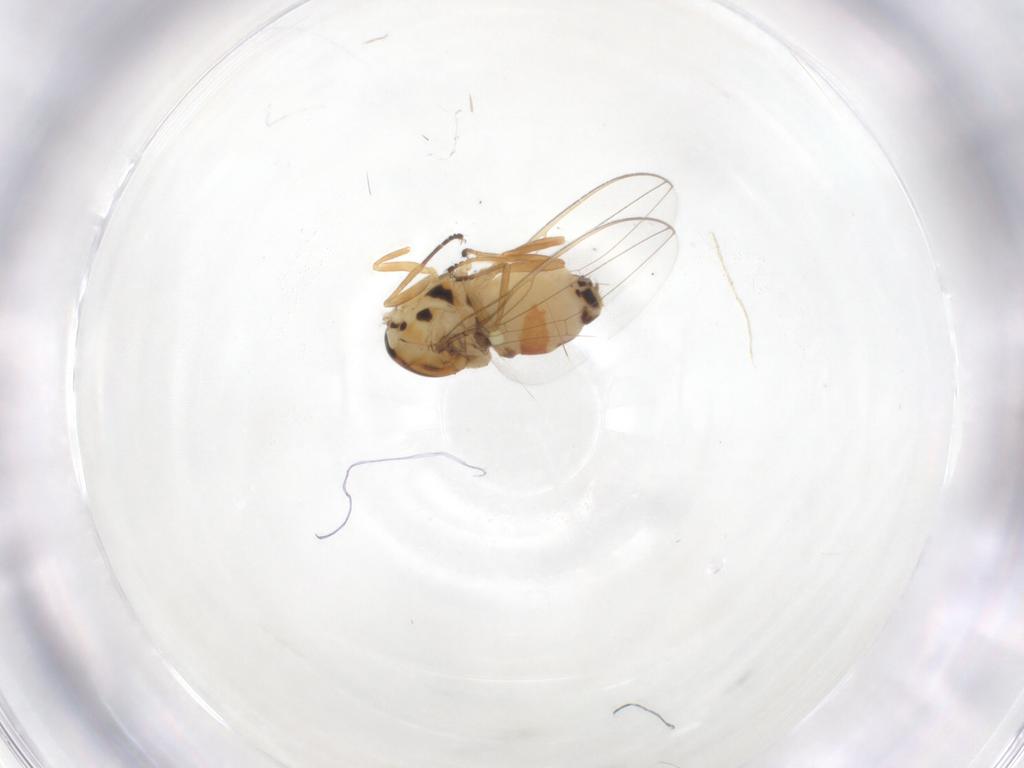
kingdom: Animalia
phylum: Arthropoda
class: Insecta
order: Diptera
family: Asteiidae
